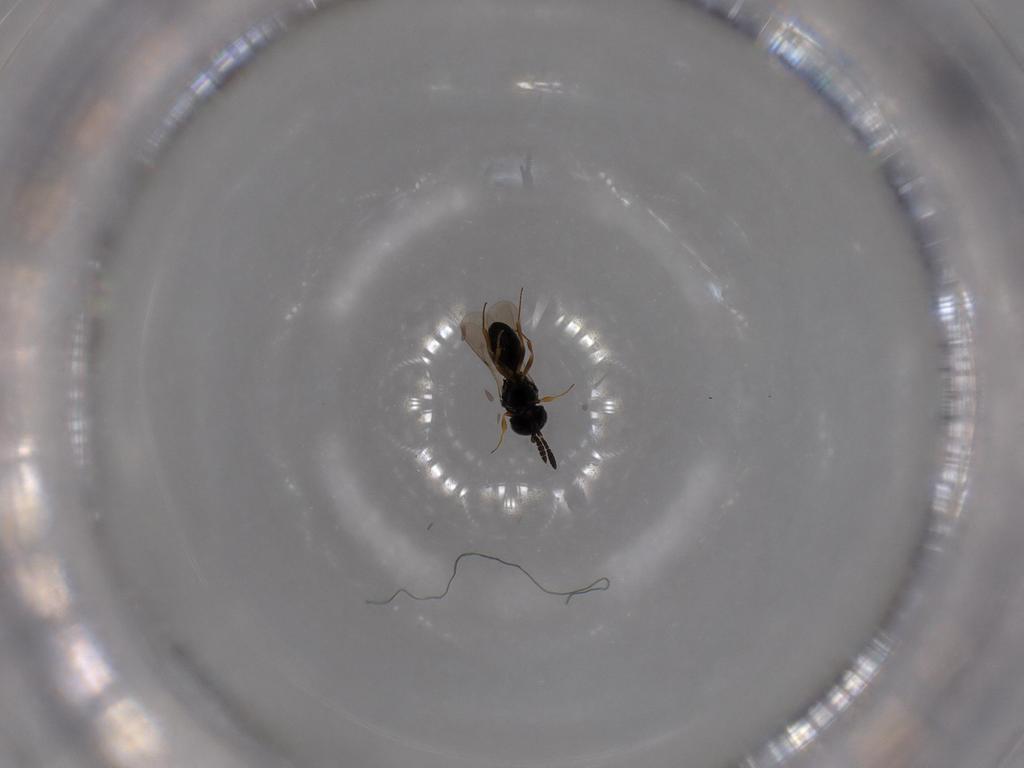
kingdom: Animalia
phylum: Arthropoda
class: Insecta
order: Hymenoptera
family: Scelionidae
